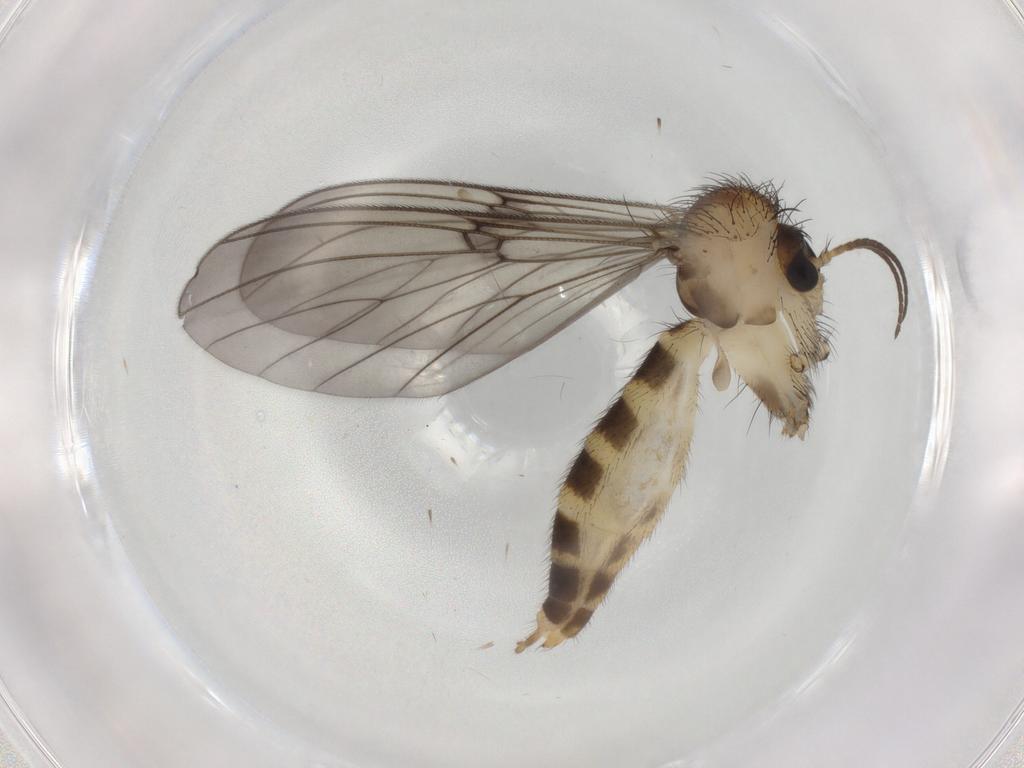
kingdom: Animalia
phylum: Arthropoda
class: Insecta
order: Diptera
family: Mycetophilidae
